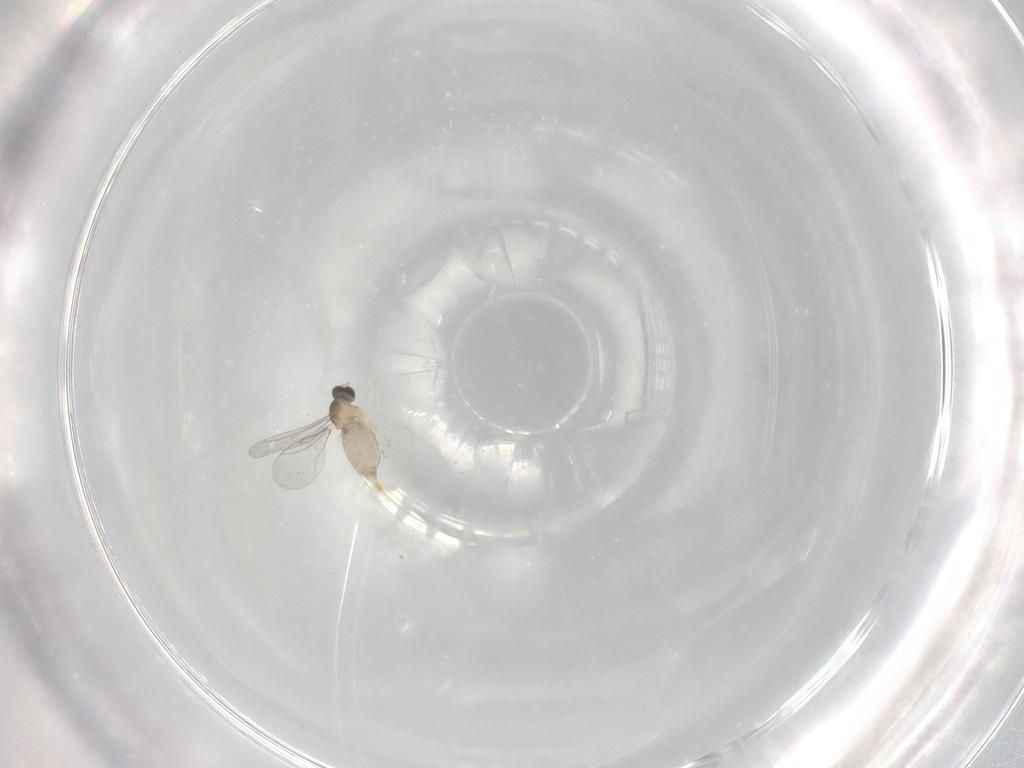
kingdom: Animalia
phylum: Arthropoda
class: Insecta
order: Diptera
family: Cecidomyiidae
